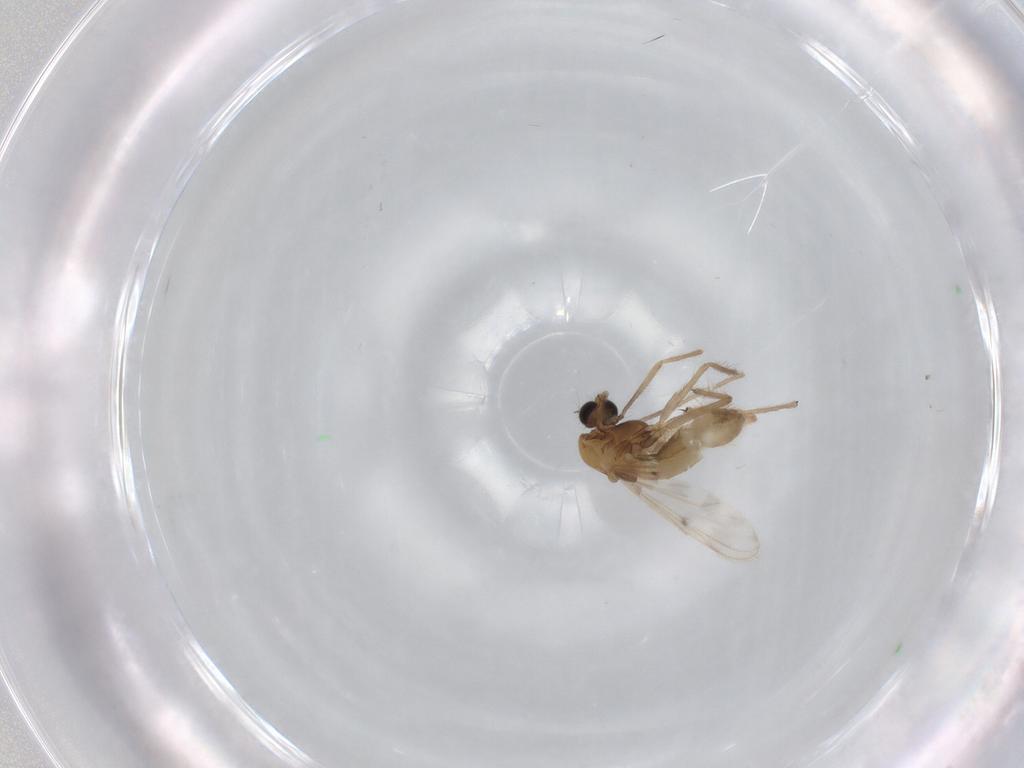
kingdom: Animalia
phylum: Arthropoda
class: Insecta
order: Diptera
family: Chironomidae
